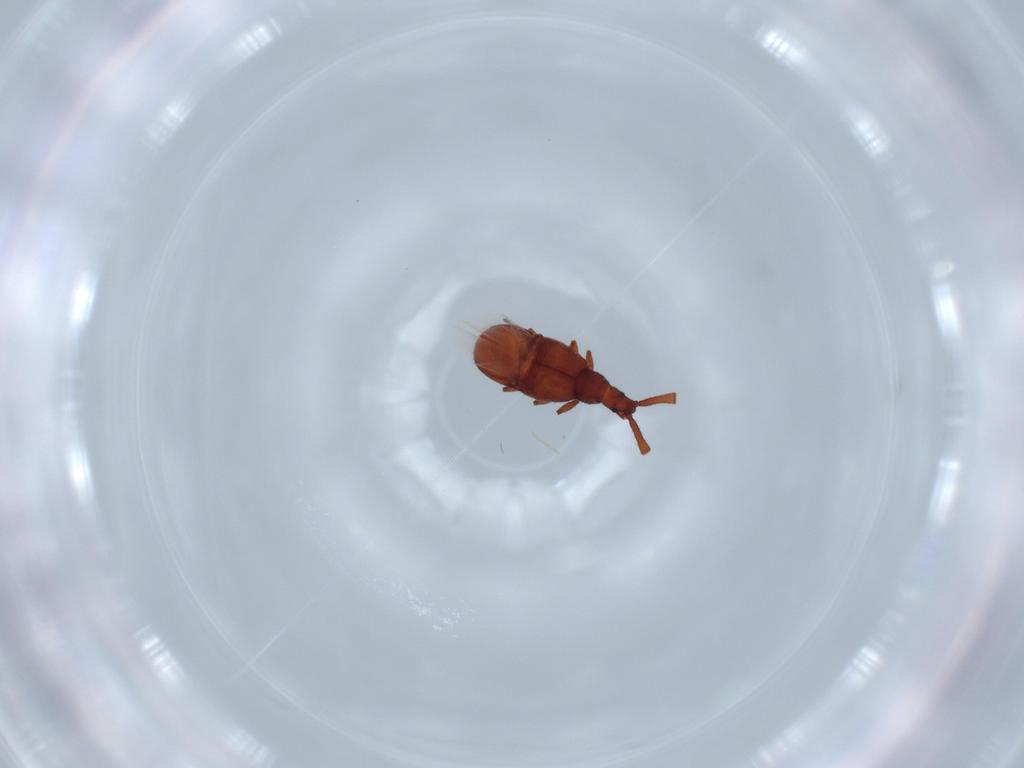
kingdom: Animalia
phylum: Arthropoda
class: Insecta
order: Coleoptera
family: Staphylinidae
